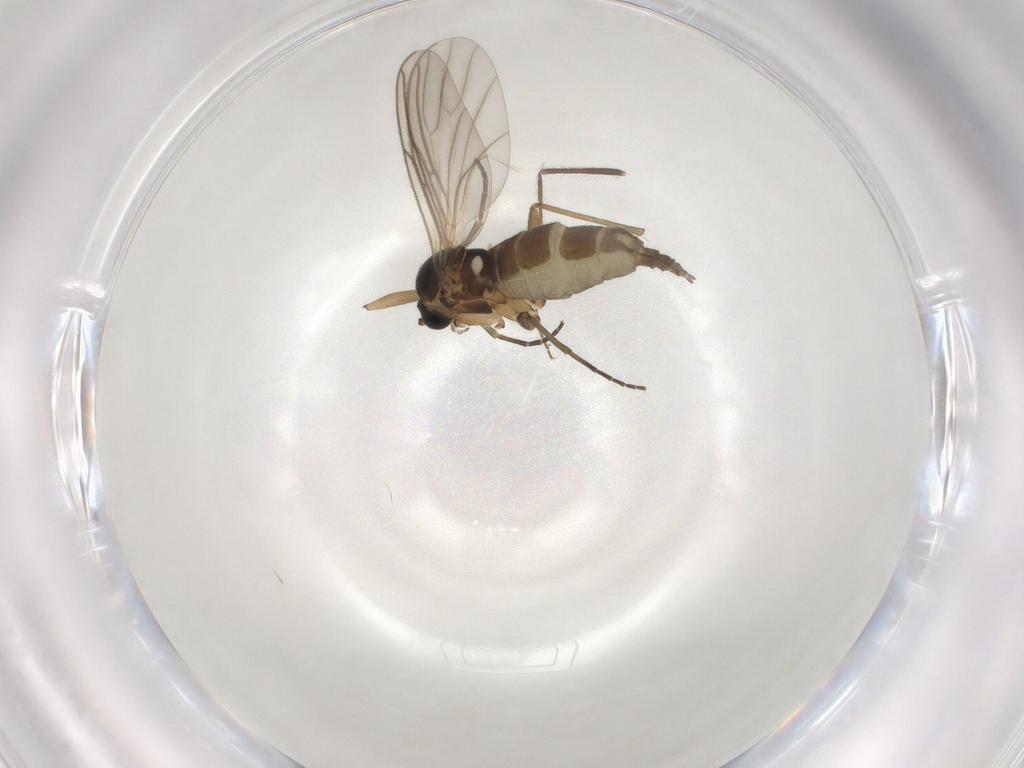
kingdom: Animalia
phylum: Arthropoda
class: Insecta
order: Diptera
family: Chironomidae
